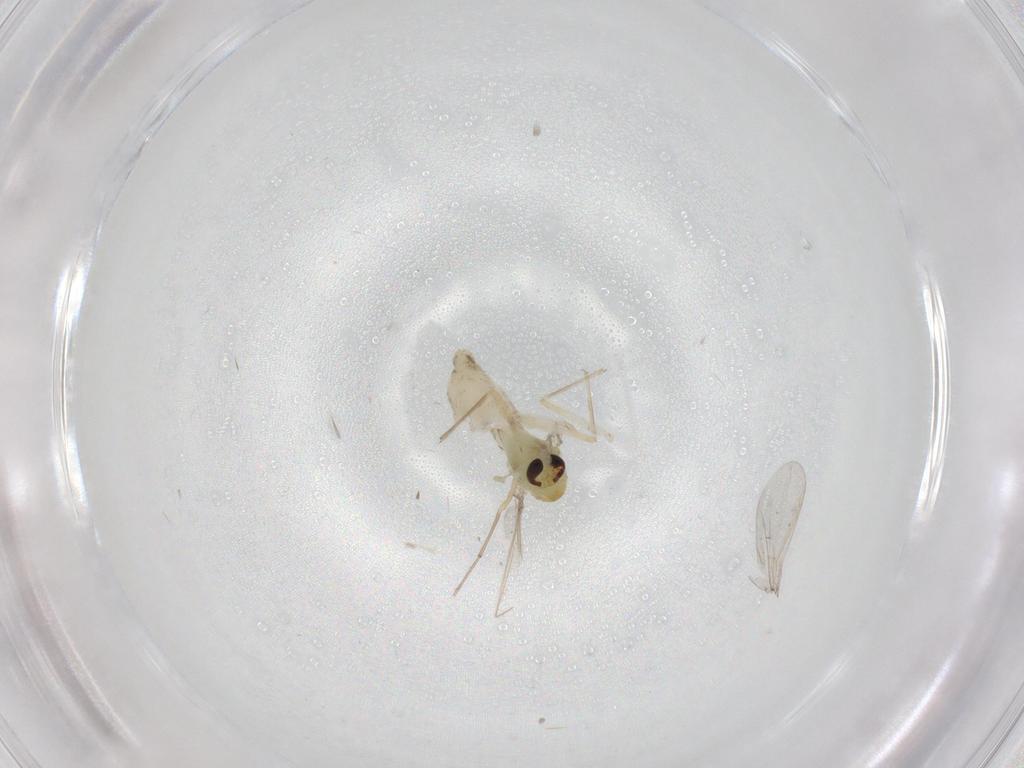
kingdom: Animalia
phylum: Arthropoda
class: Insecta
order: Diptera
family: Chironomidae
